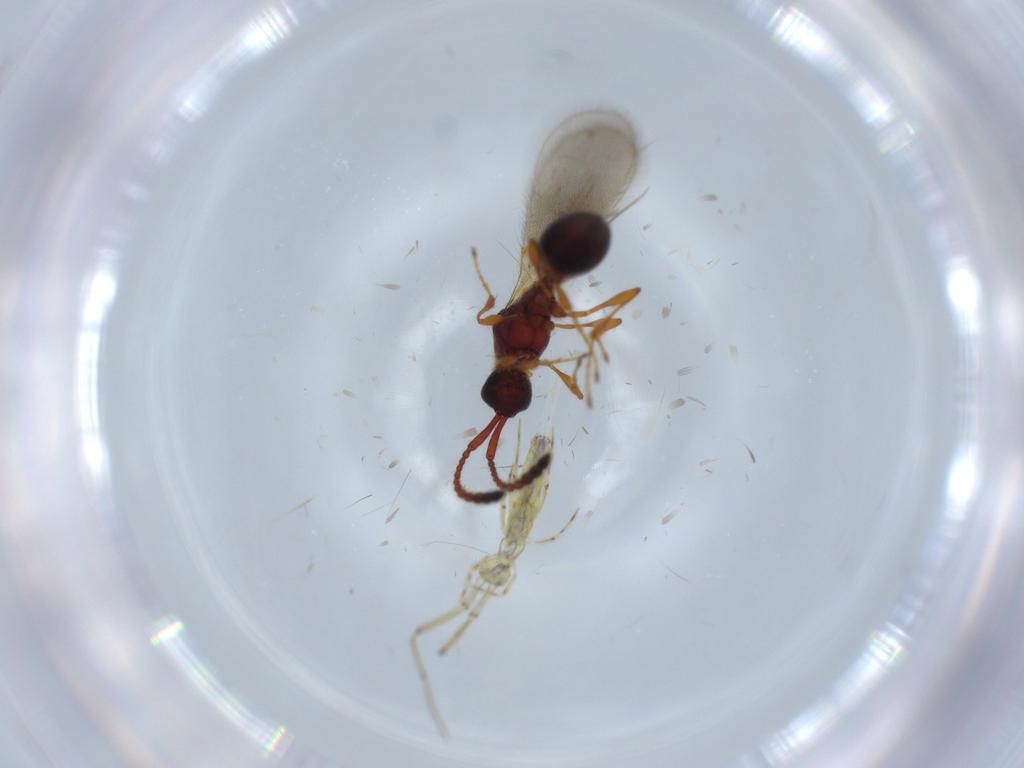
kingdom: Animalia
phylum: Arthropoda
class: Insecta
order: Hymenoptera
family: Diapriidae
